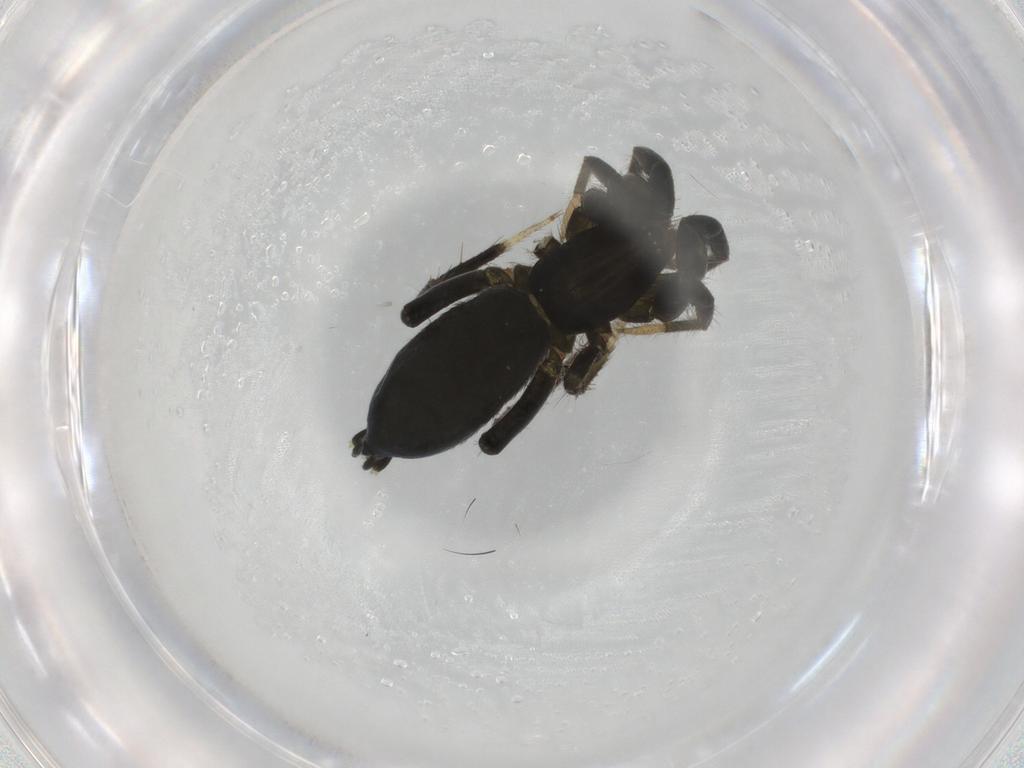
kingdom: Animalia
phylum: Arthropoda
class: Arachnida
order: Araneae
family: Gnaphosidae
